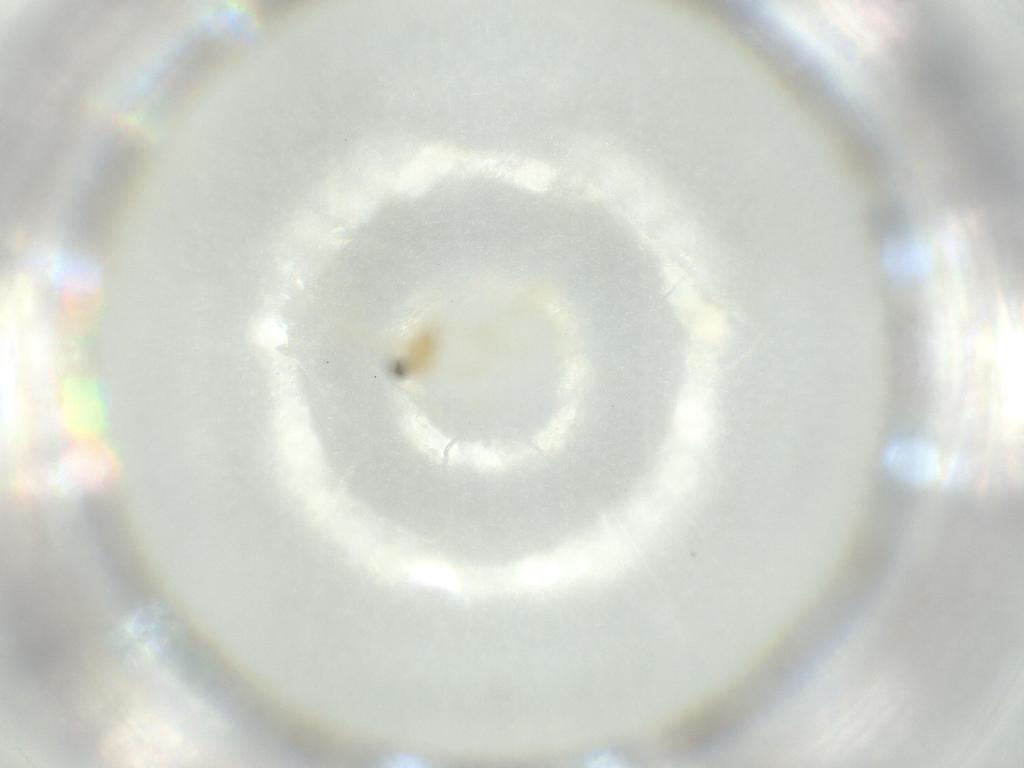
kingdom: Animalia
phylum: Arthropoda
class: Insecta
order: Diptera
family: Cecidomyiidae
